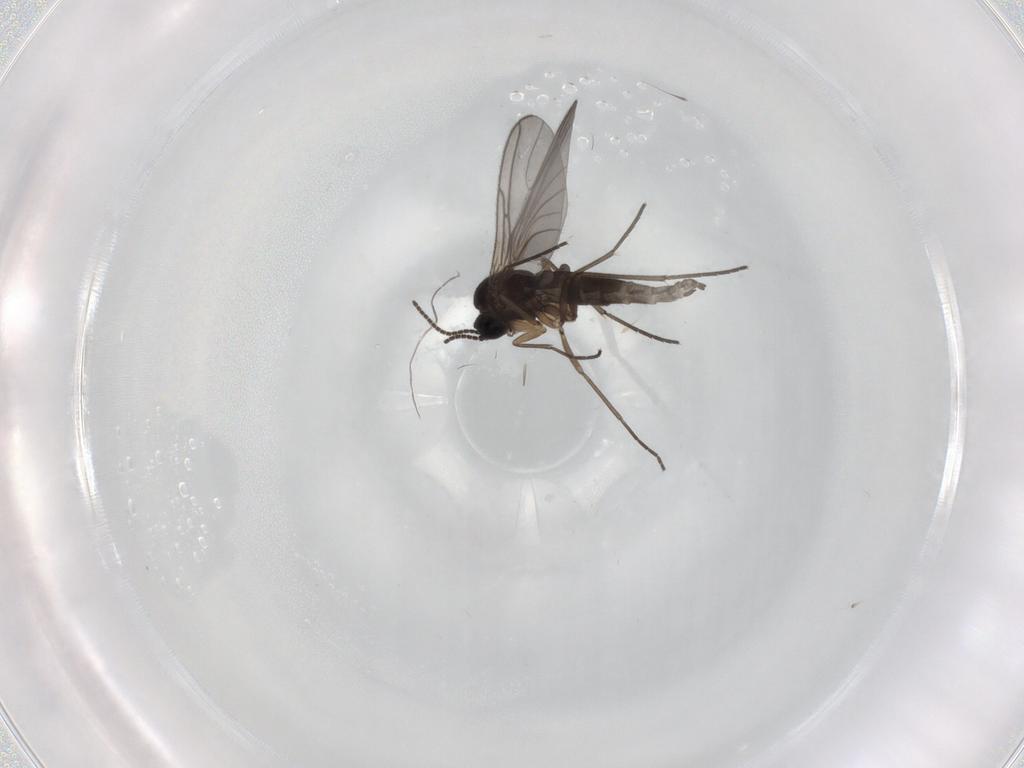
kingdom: Animalia
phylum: Arthropoda
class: Insecta
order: Diptera
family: Sciaridae
